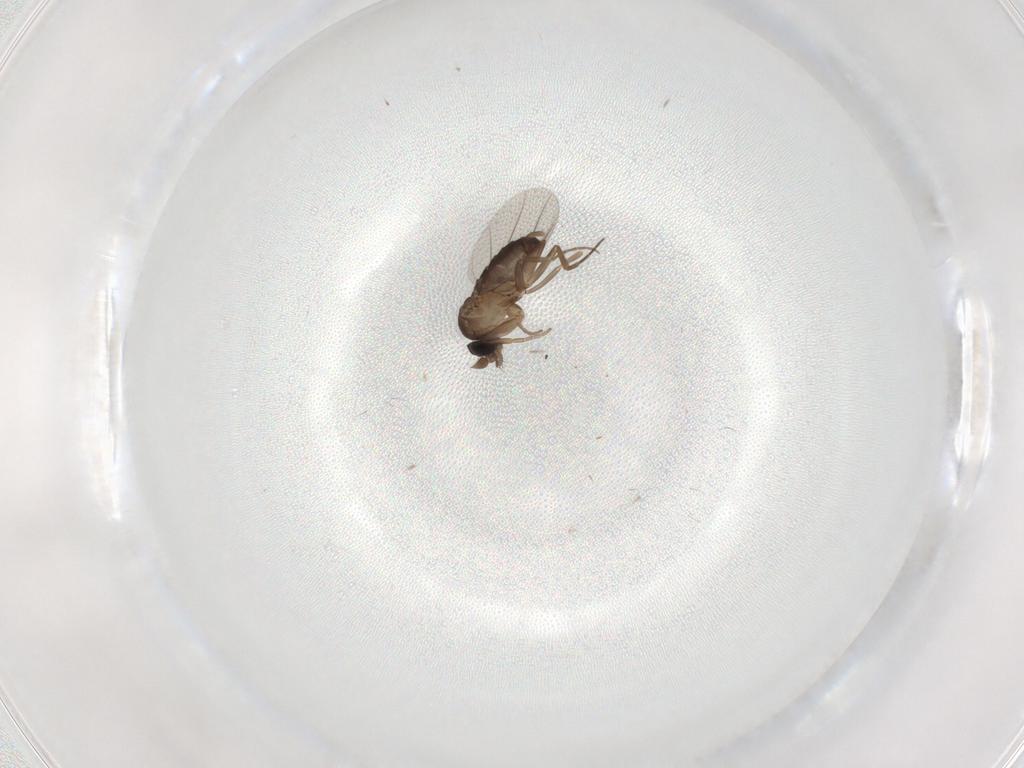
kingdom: Animalia
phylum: Arthropoda
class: Insecta
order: Diptera
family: Phoridae
